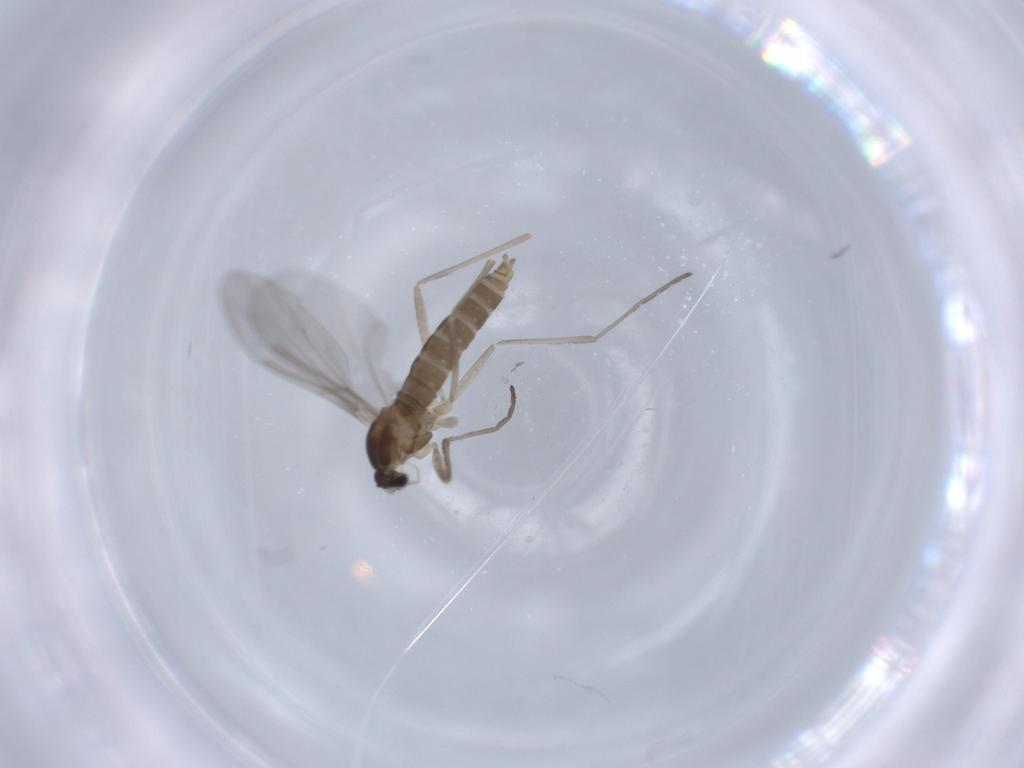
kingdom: Animalia
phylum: Arthropoda
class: Insecta
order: Diptera
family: Cecidomyiidae
